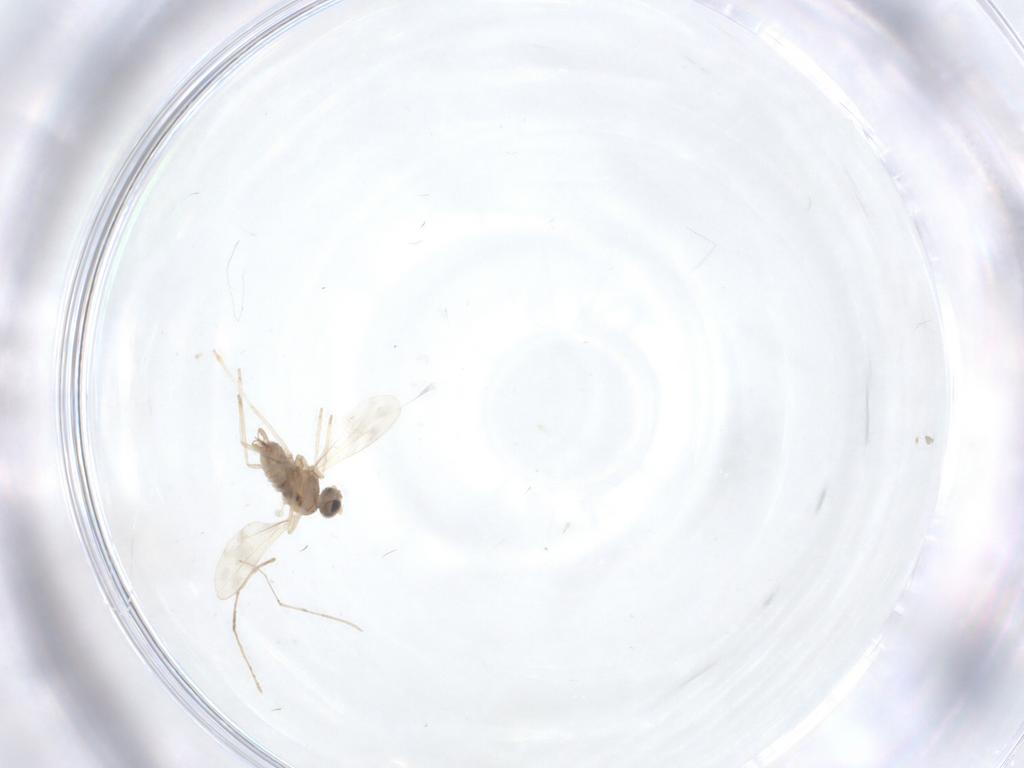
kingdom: Animalia
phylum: Arthropoda
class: Insecta
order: Diptera
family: Cecidomyiidae
